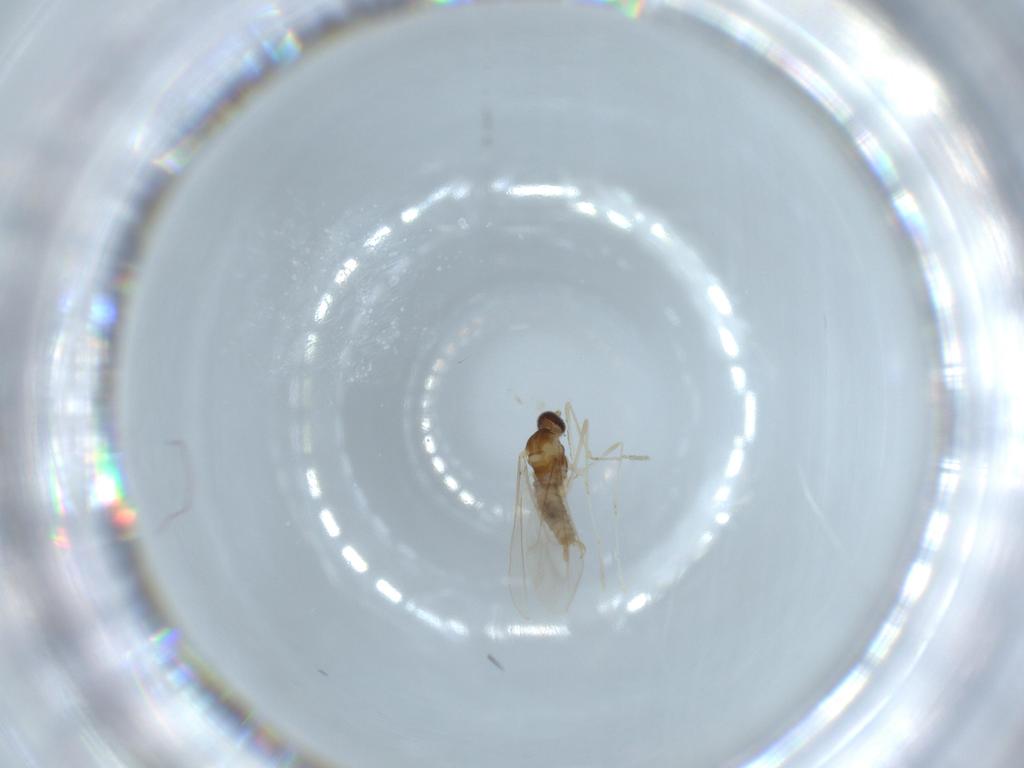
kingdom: Animalia
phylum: Arthropoda
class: Insecta
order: Diptera
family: Cecidomyiidae
